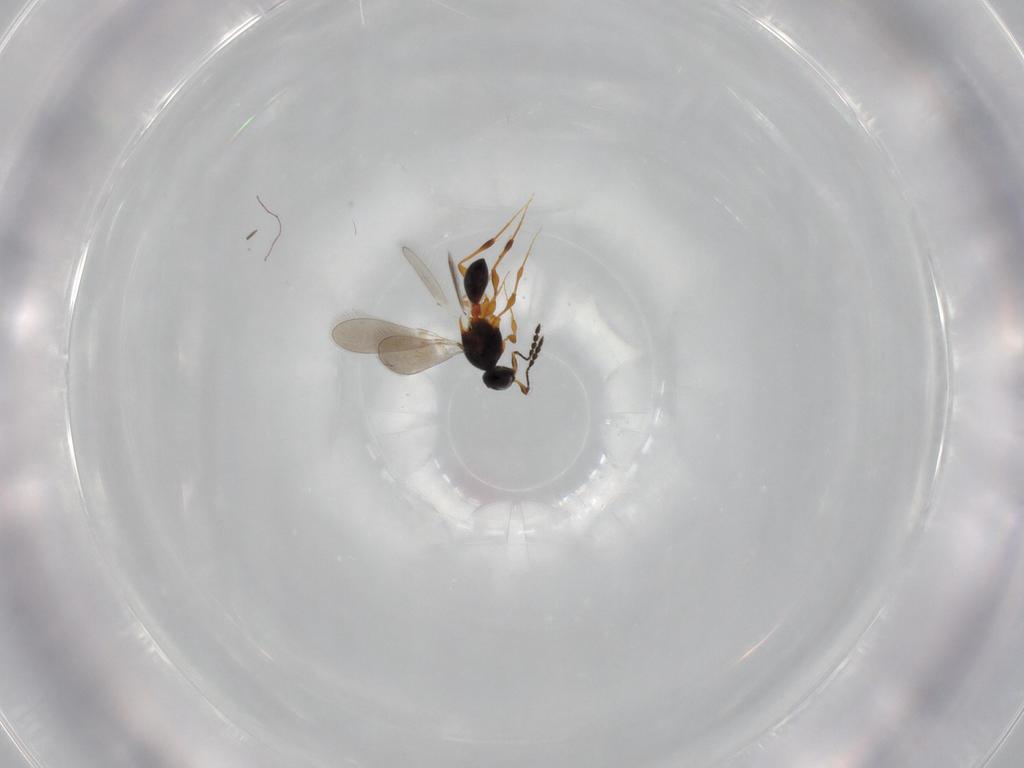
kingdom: Animalia
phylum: Arthropoda
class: Insecta
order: Hymenoptera
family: Platygastridae
